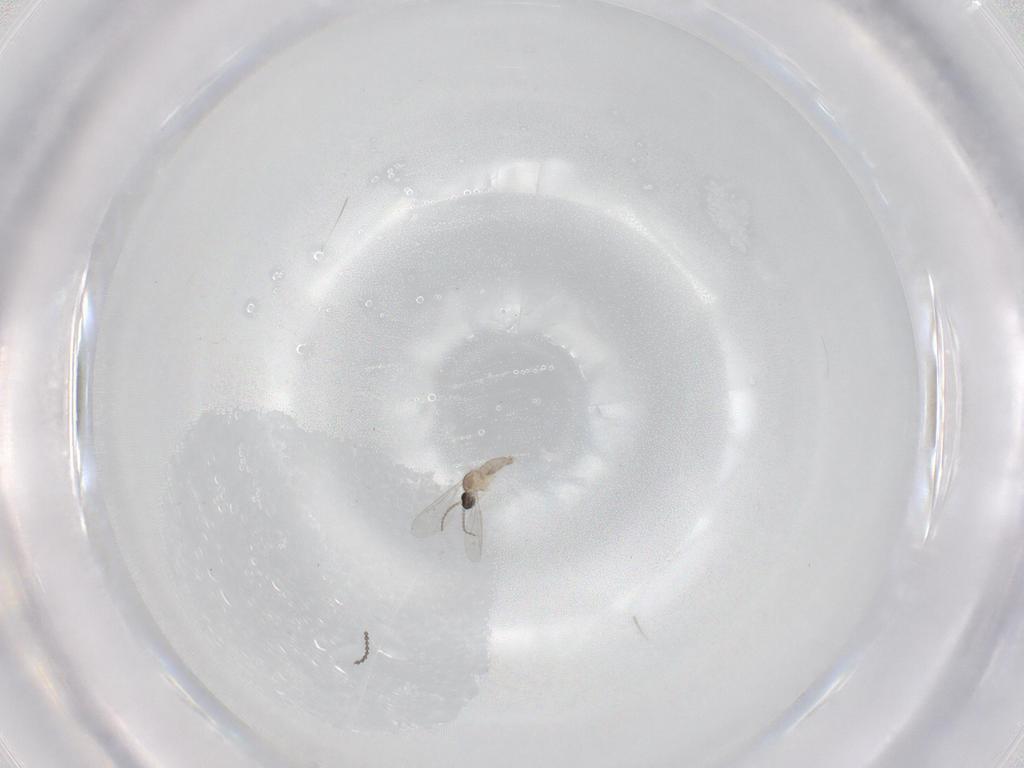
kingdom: Animalia
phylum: Arthropoda
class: Insecta
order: Diptera
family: Cecidomyiidae
